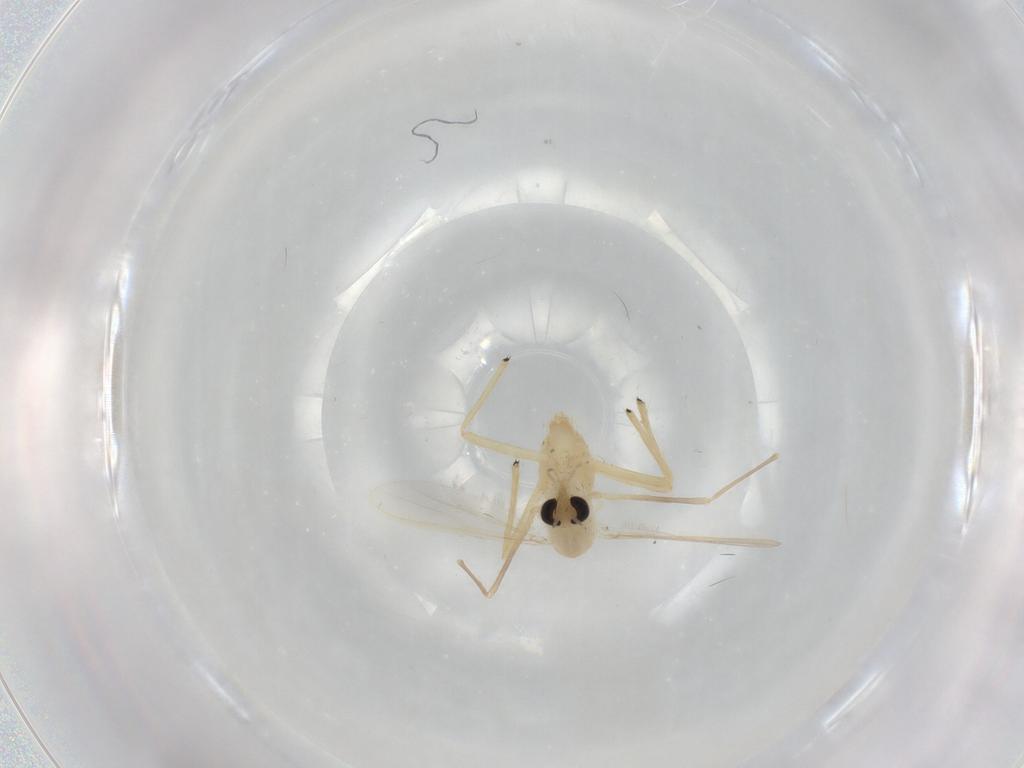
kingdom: Animalia
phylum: Arthropoda
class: Insecta
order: Diptera
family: Chironomidae
